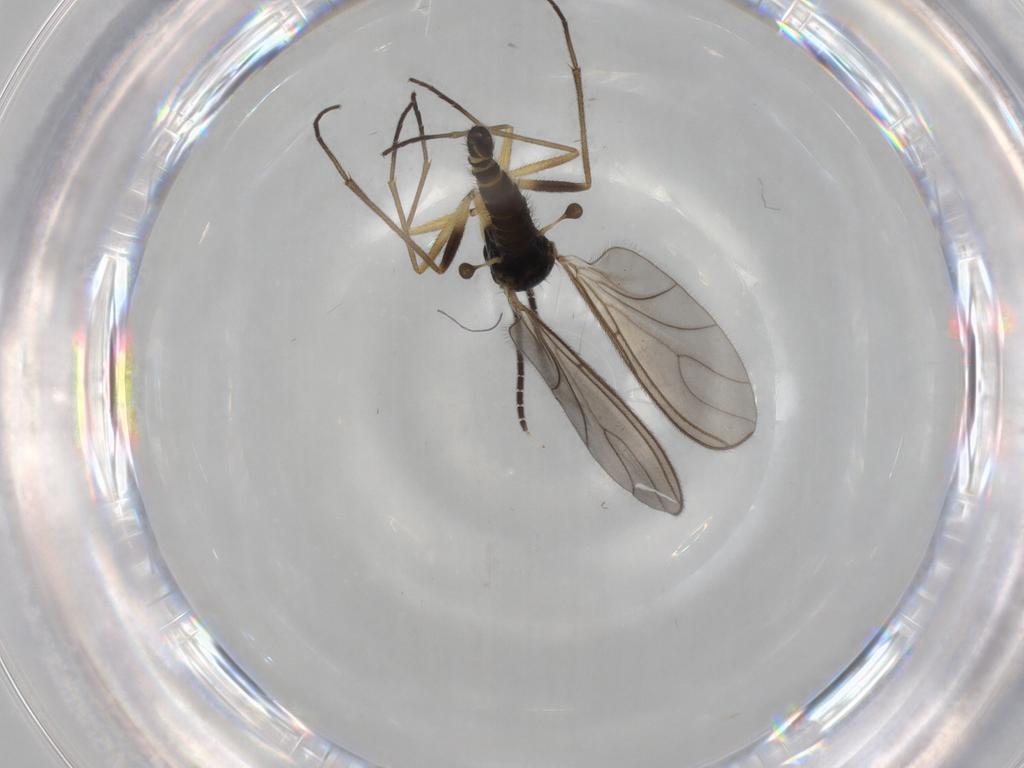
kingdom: Animalia
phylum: Arthropoda
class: Insecta
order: Diptera
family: Sciaridae
